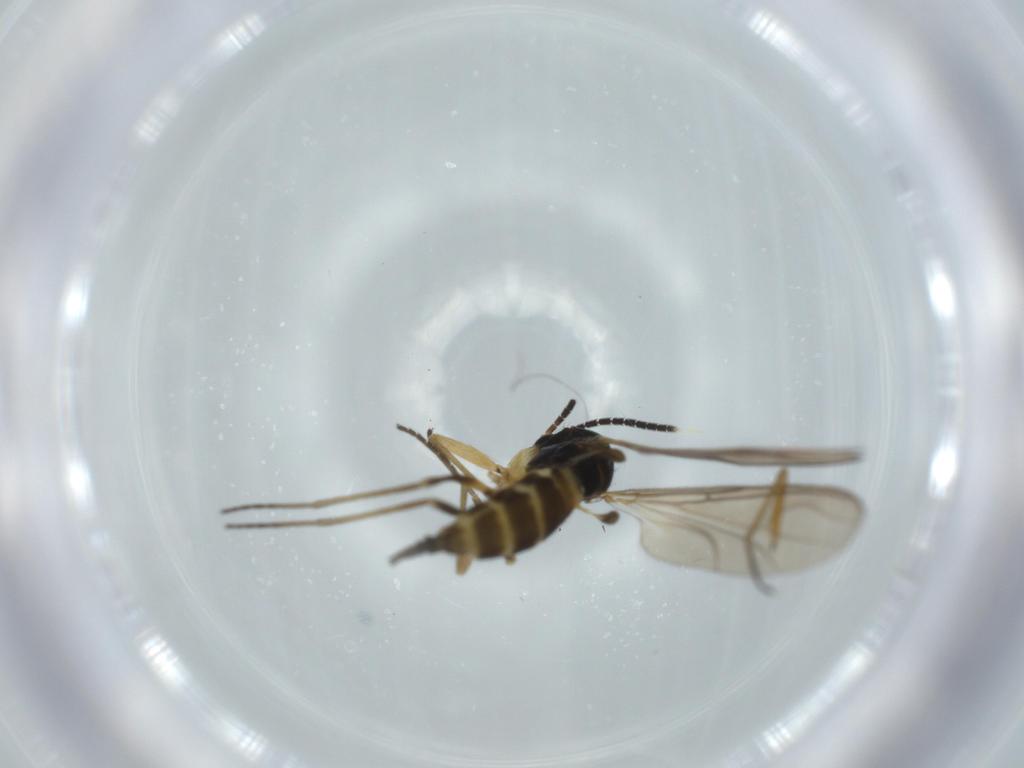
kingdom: Animalia
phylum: Arthropoda
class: Insecta
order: Diptera
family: Sciaridae
